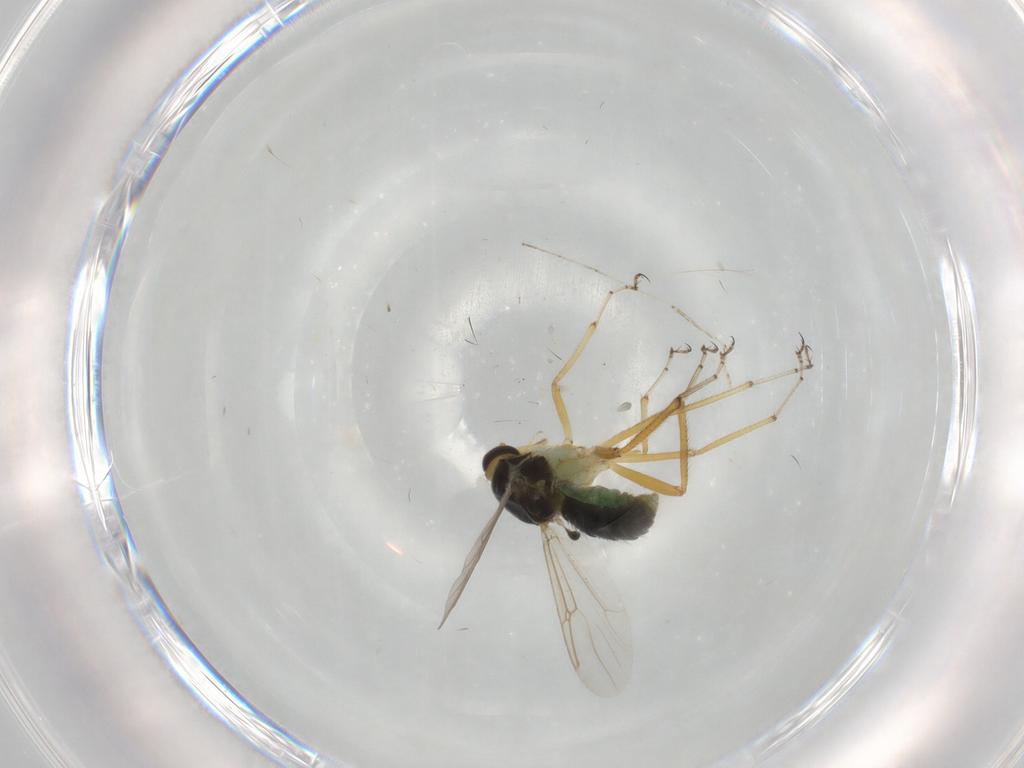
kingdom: Animalia
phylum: Arthropoda
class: Insecta
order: Diptera
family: Ceratopogonidae
